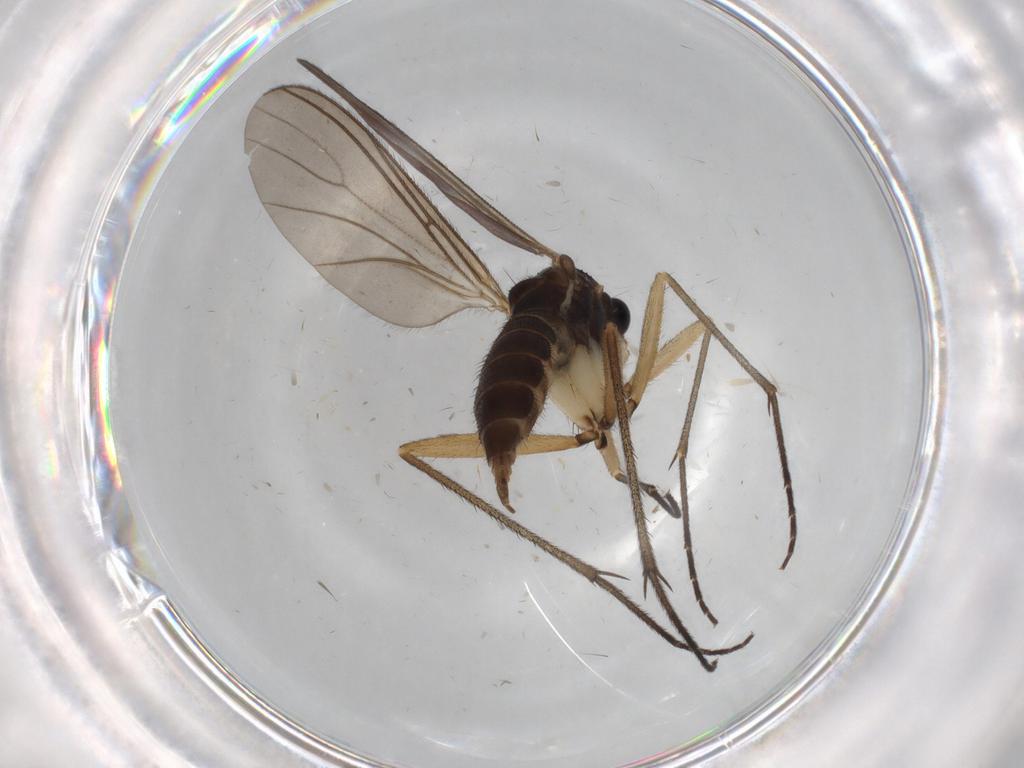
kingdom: Animalia
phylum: Arthropoda
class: Insecta
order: Diptera
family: Sciaridae
